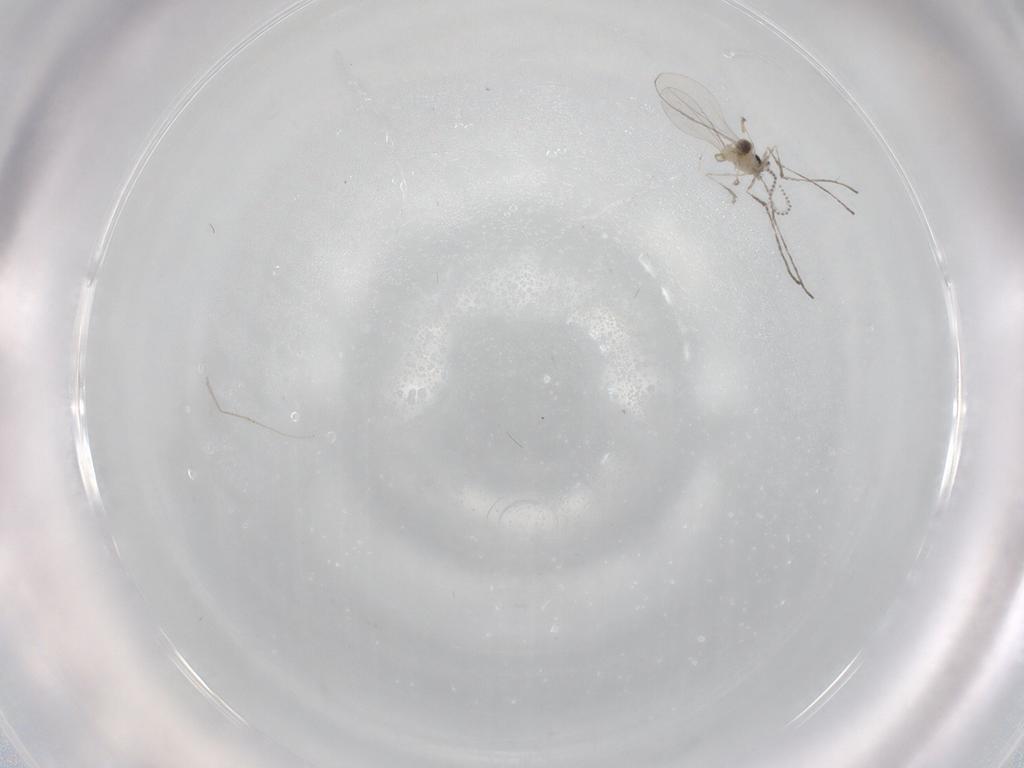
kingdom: Animalia
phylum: Arthropoda
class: Insecta
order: Diptera
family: Cecidomyiidae
